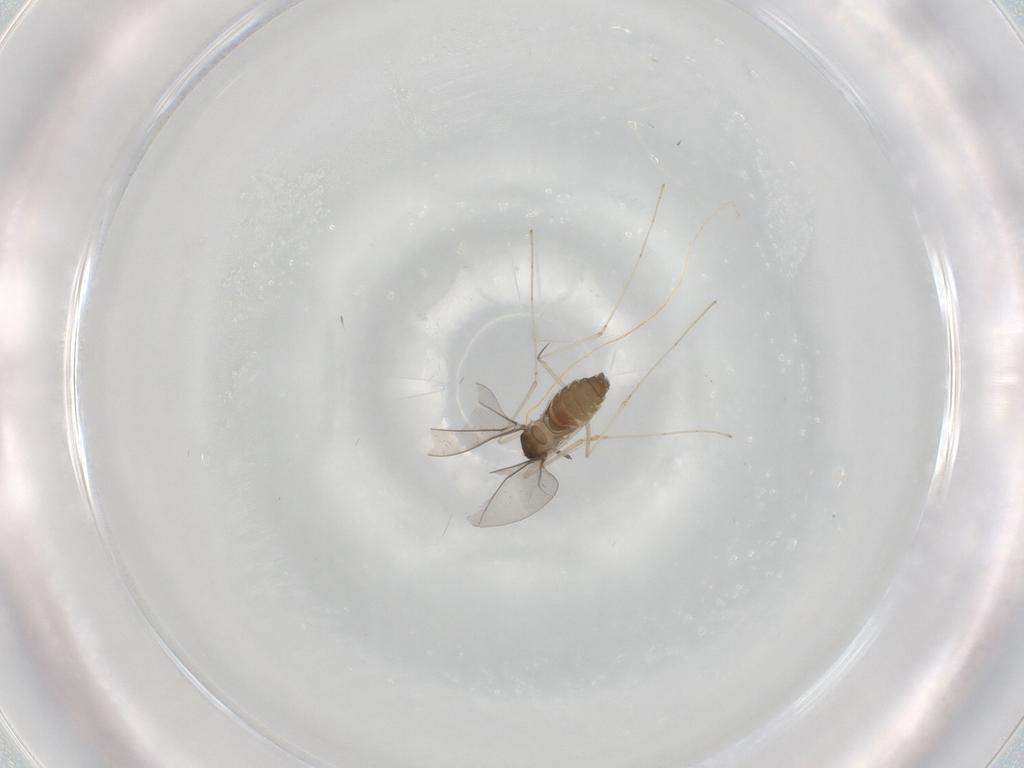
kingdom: Animalia
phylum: Arthropoda
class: Insecta
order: Diptera
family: Cecidomyiidae
